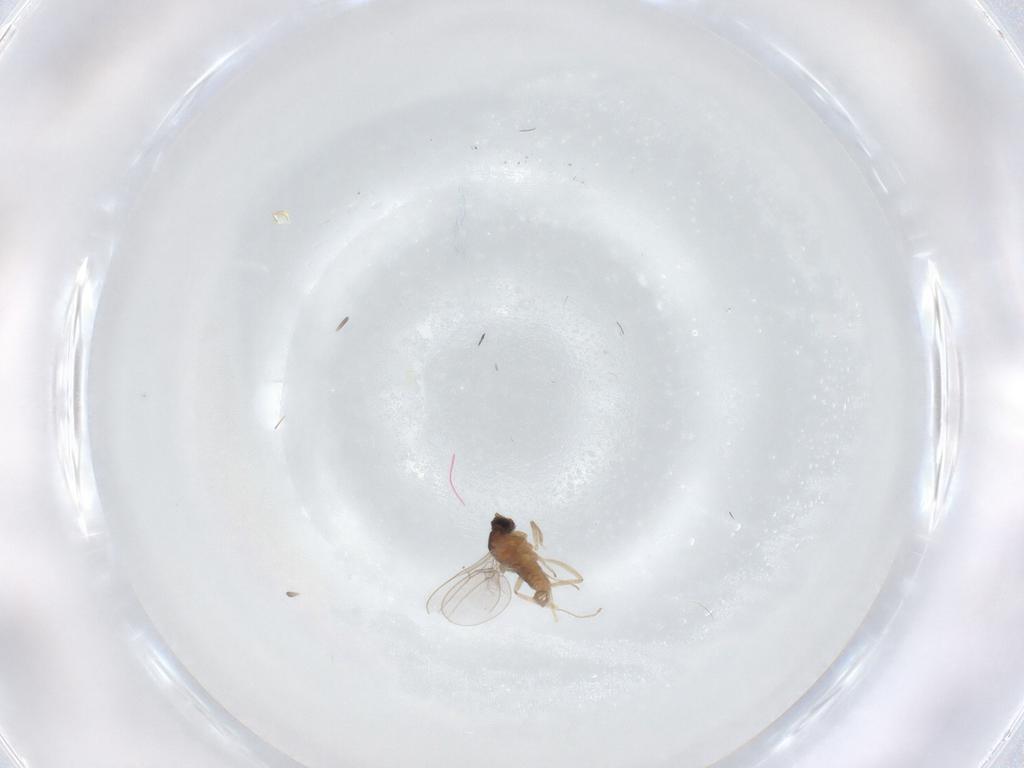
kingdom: Animalia
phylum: Arthropoda
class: Insecta
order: Diptera
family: Cecidomyiidae
